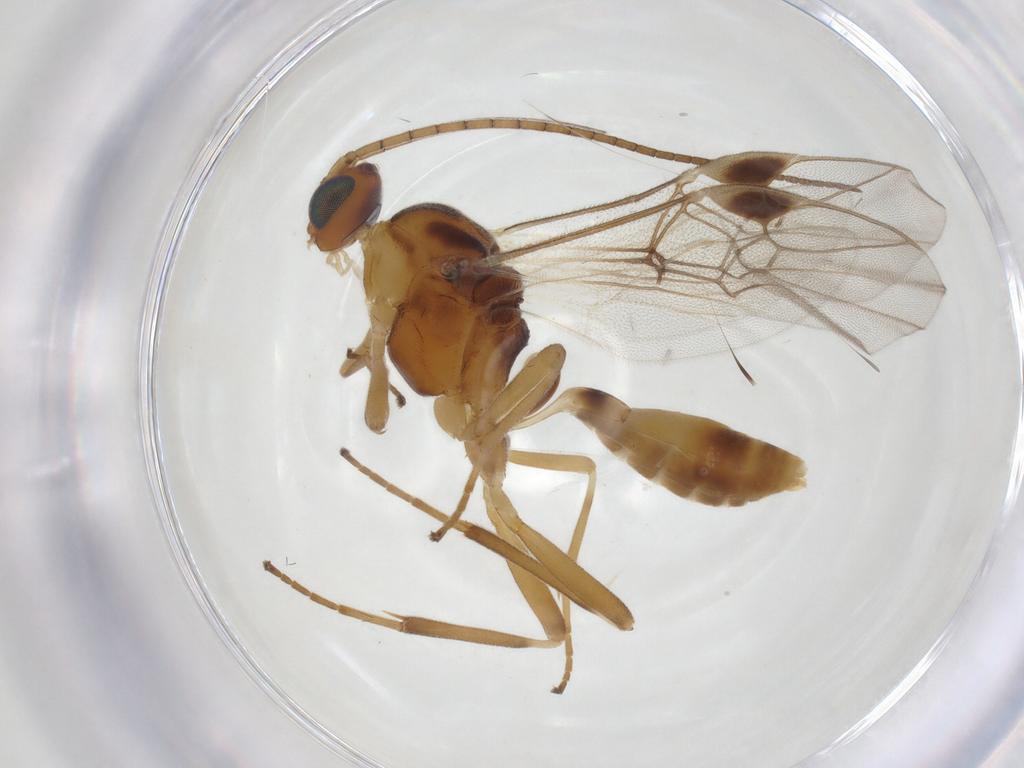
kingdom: Animalia
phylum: Arthropoda
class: Insecta
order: Hymenoptera
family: Braconidae
